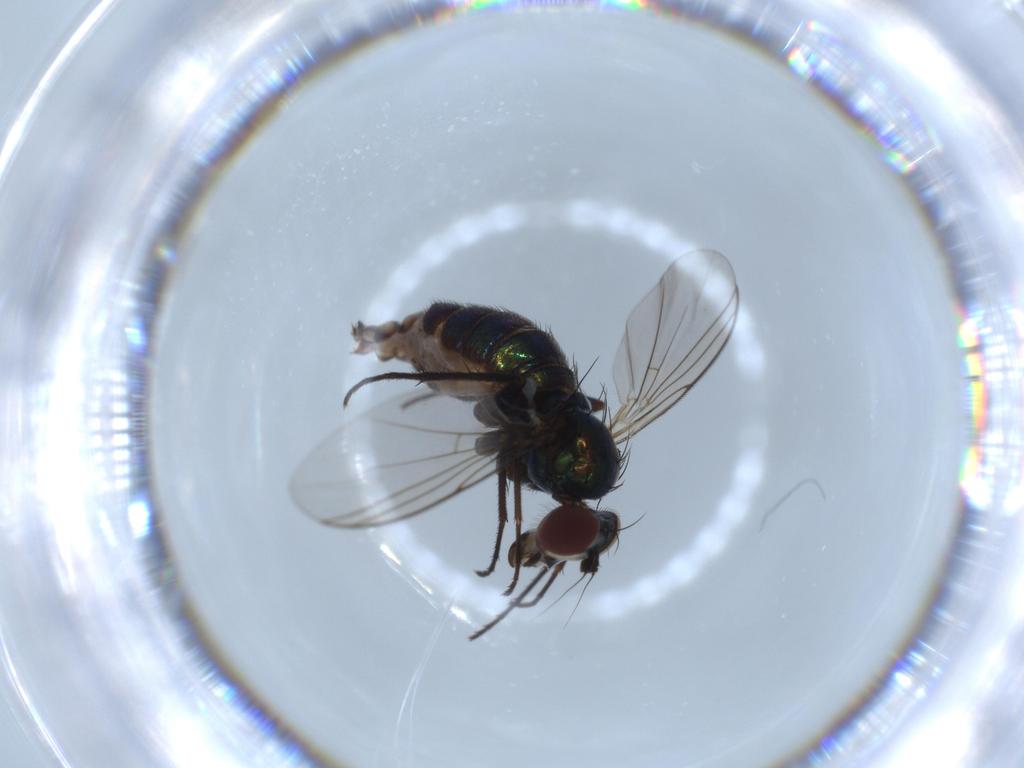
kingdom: Animalia
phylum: Arthropoda
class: Insecta
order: Diptera
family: Dolichopodidae
